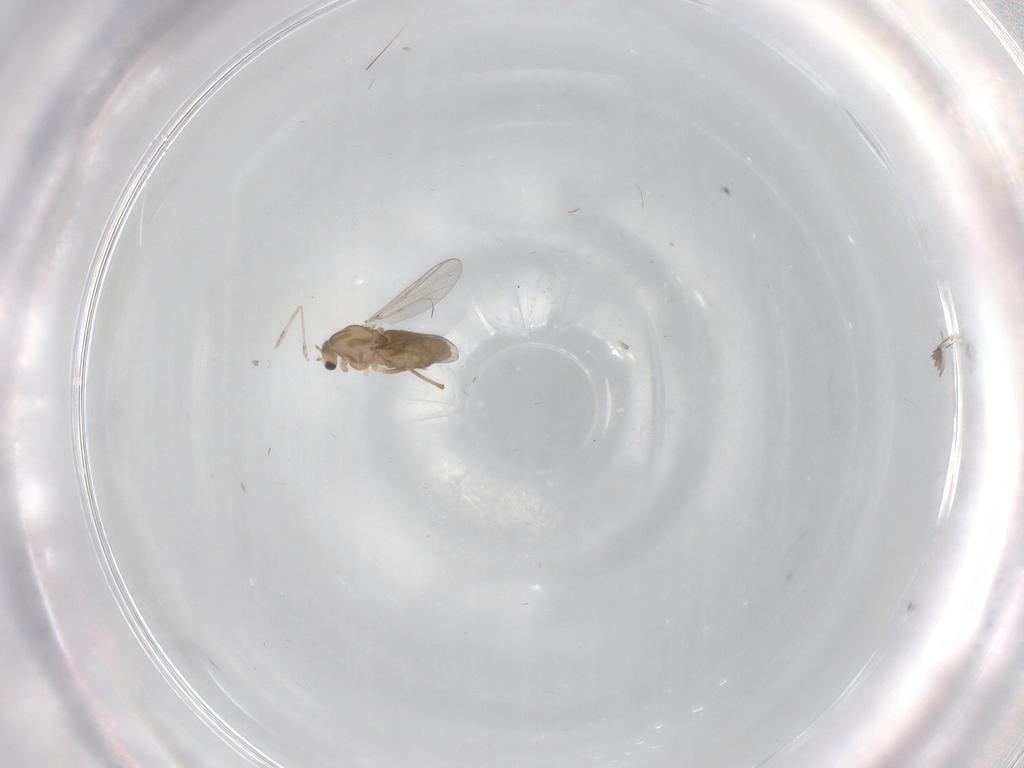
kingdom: Animalia
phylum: Arthropoda
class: Insecta
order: Diptera
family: Chironomidae
